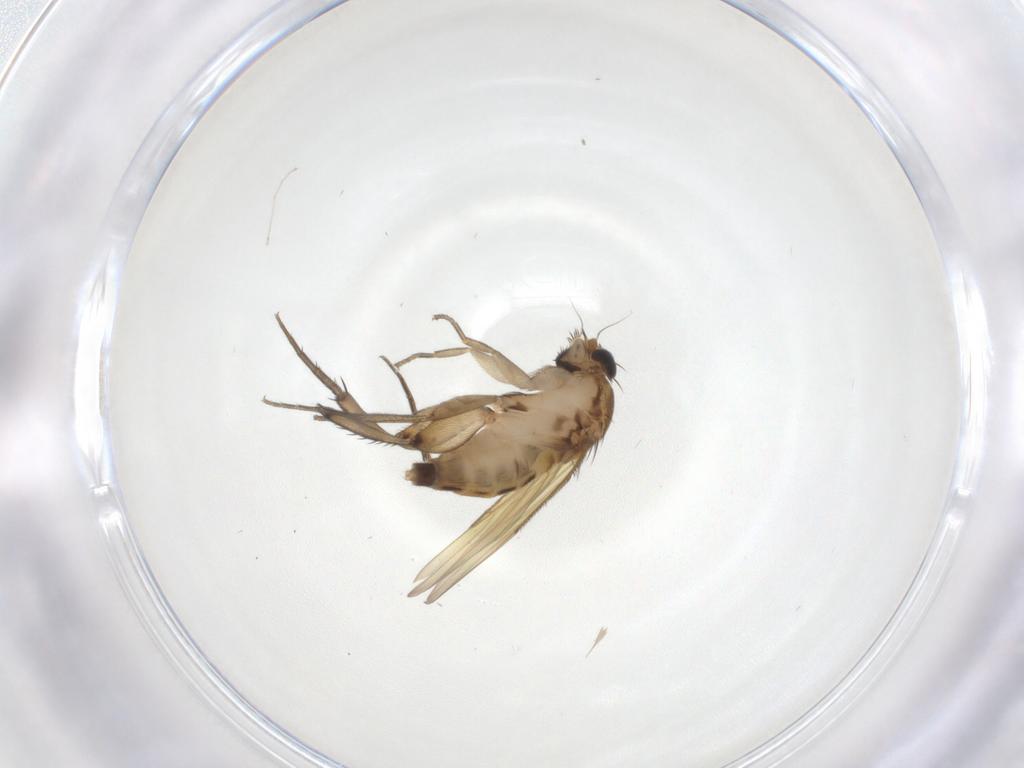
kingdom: Animalia
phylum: Arthropoda
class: Insecta
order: Diptera
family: Phoridae
